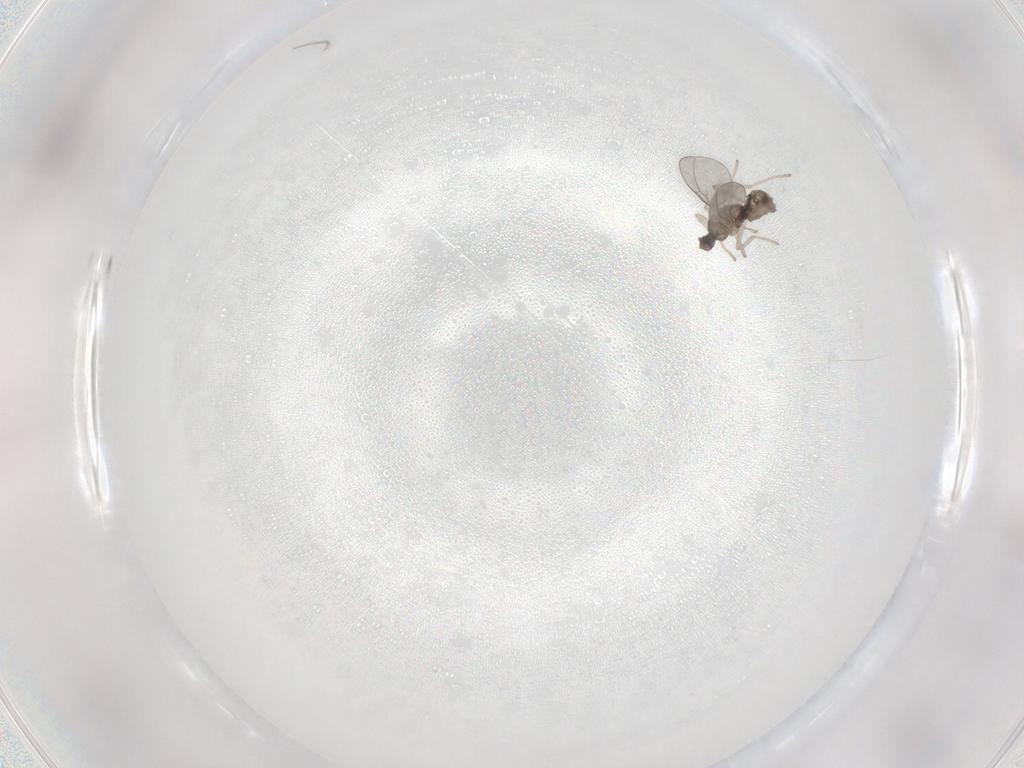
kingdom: Animalia
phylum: Arthropoda
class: Insecta
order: Diptera
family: Cecidomyiidae
